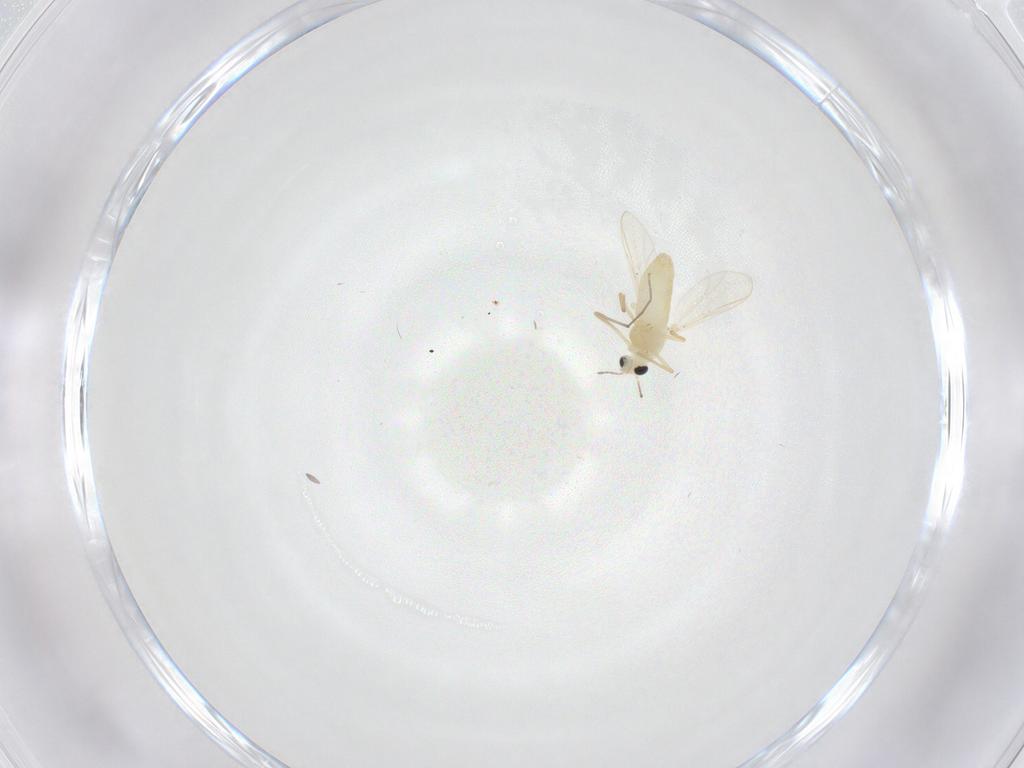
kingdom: Animalia
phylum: Arthropoda
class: Insecta
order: Diptera
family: Chironomidae
